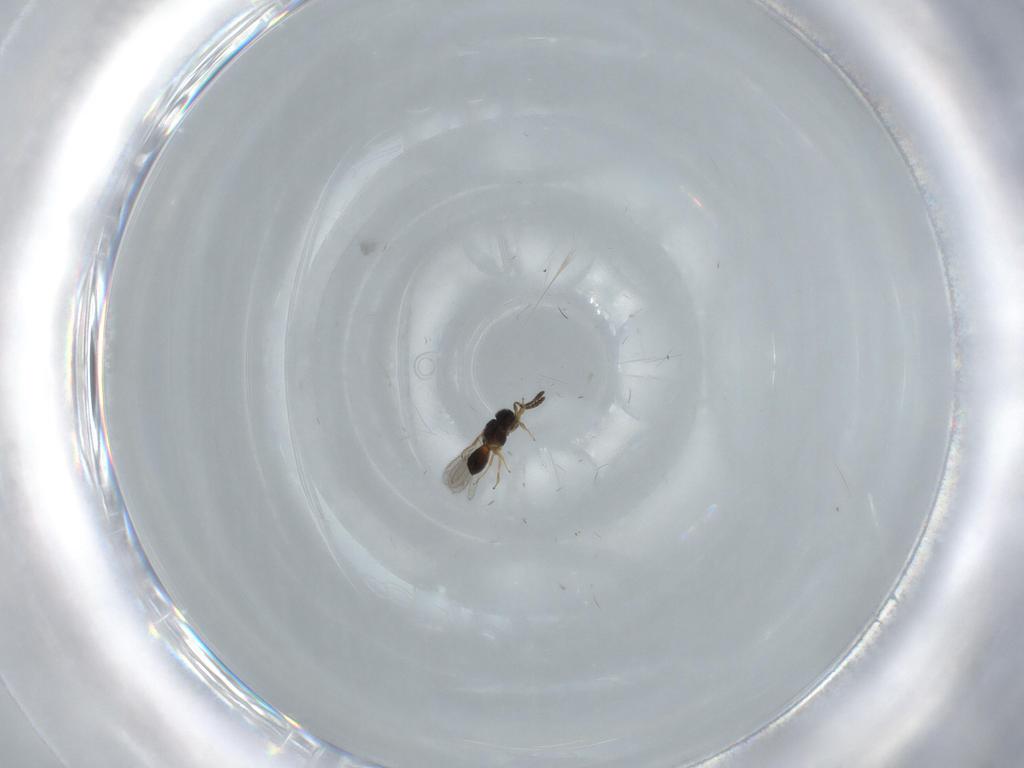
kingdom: Animalia
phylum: Arthropoda
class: Insecta
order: Hymenoptera
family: Scelionidae
